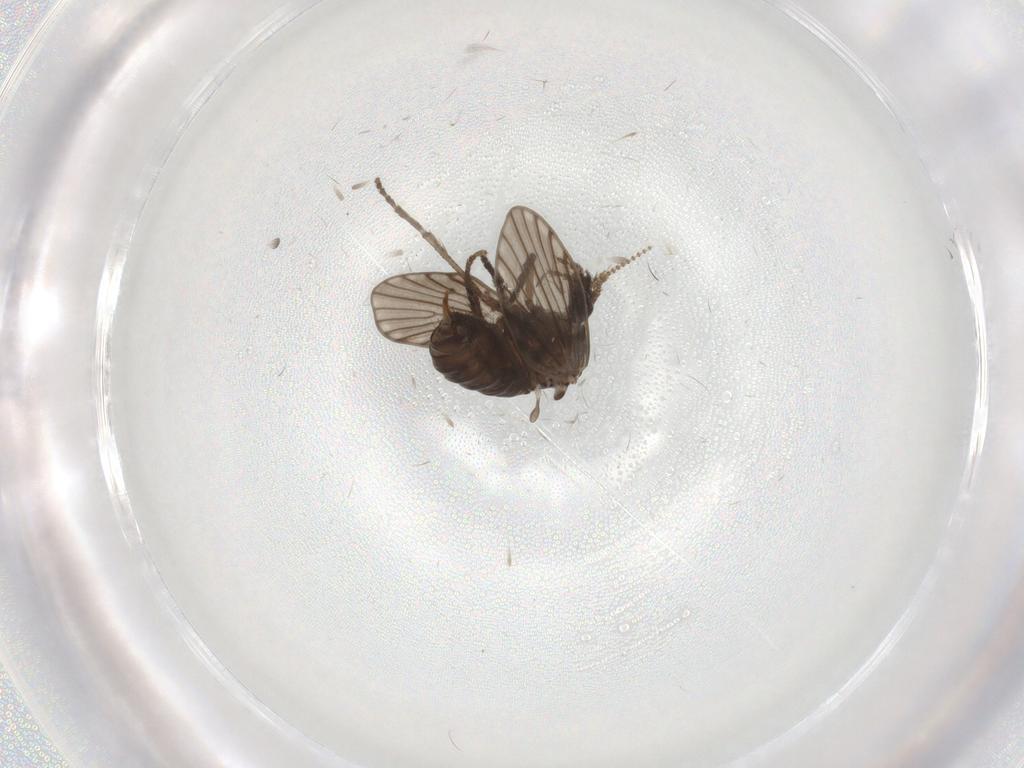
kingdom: Animalia
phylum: Arthropoda
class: Insecta
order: Diptera
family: Psychodidae
